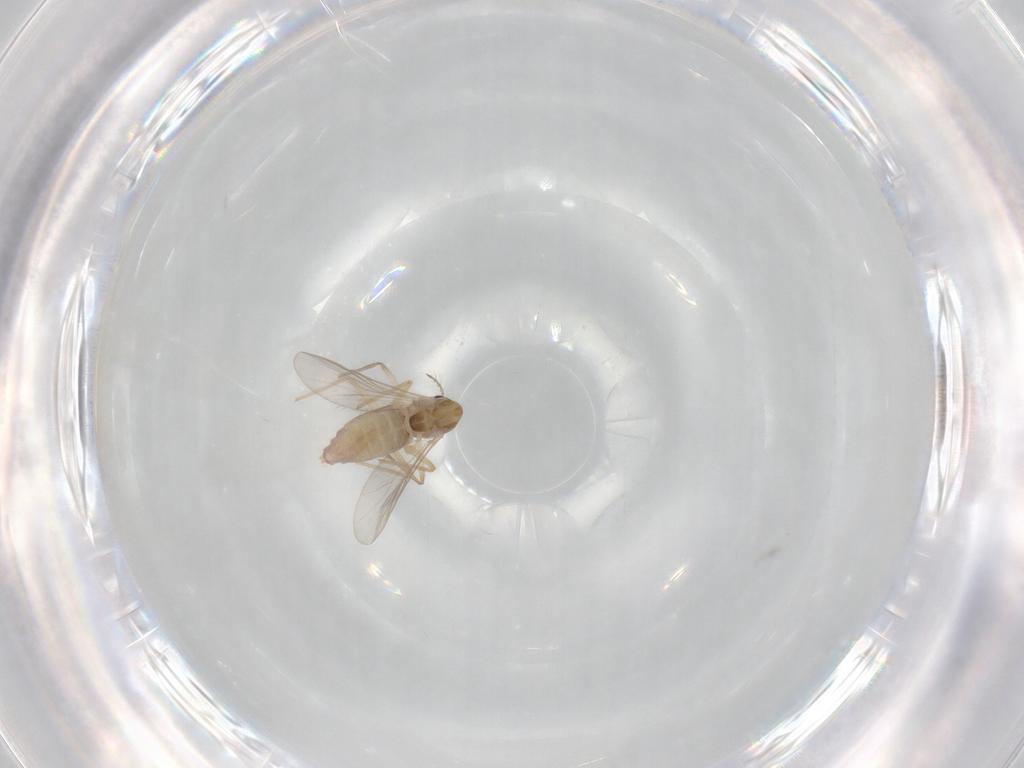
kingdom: Animalia
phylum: Arthropoda
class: Insecta
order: Diptera
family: Chironomidae
